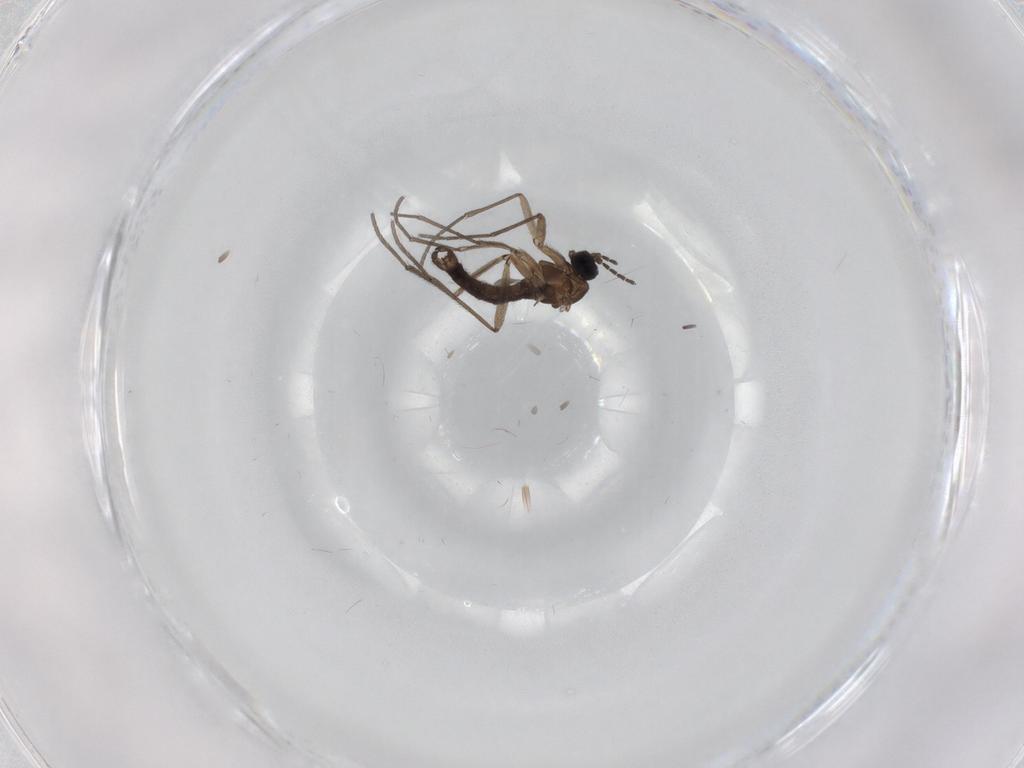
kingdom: Animalia
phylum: Arthropoda
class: Insecta
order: Diptera
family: Sciaridae
